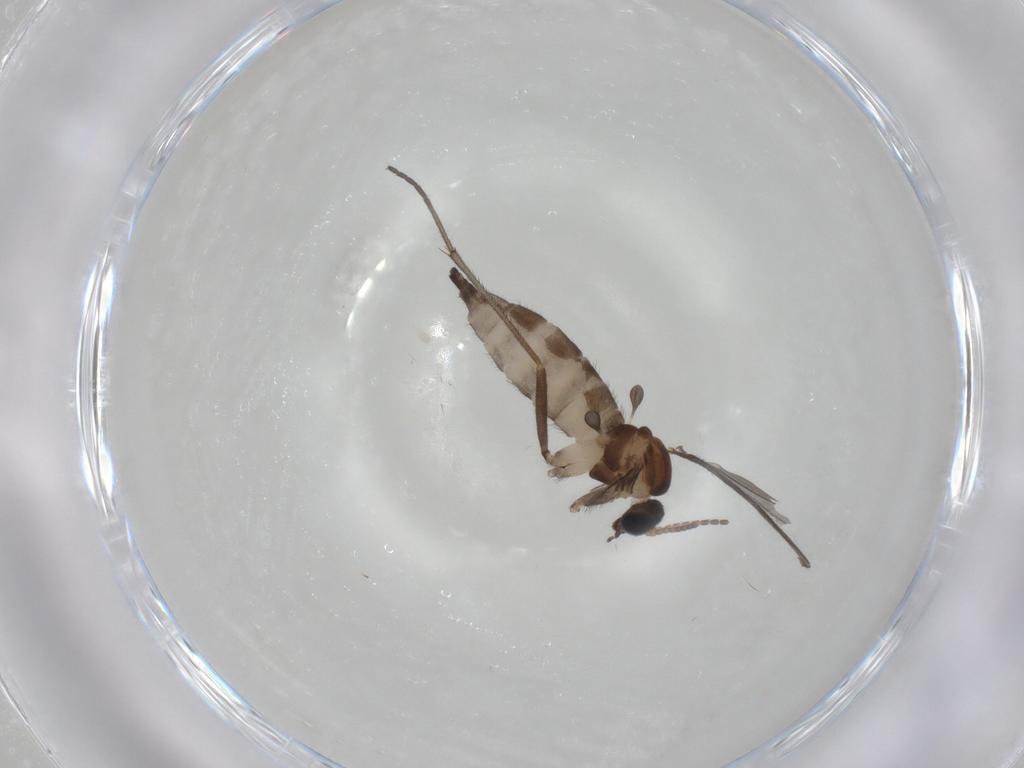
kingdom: Animalia
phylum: Arthropoda
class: Insecta
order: Diptera
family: Sciaridae
